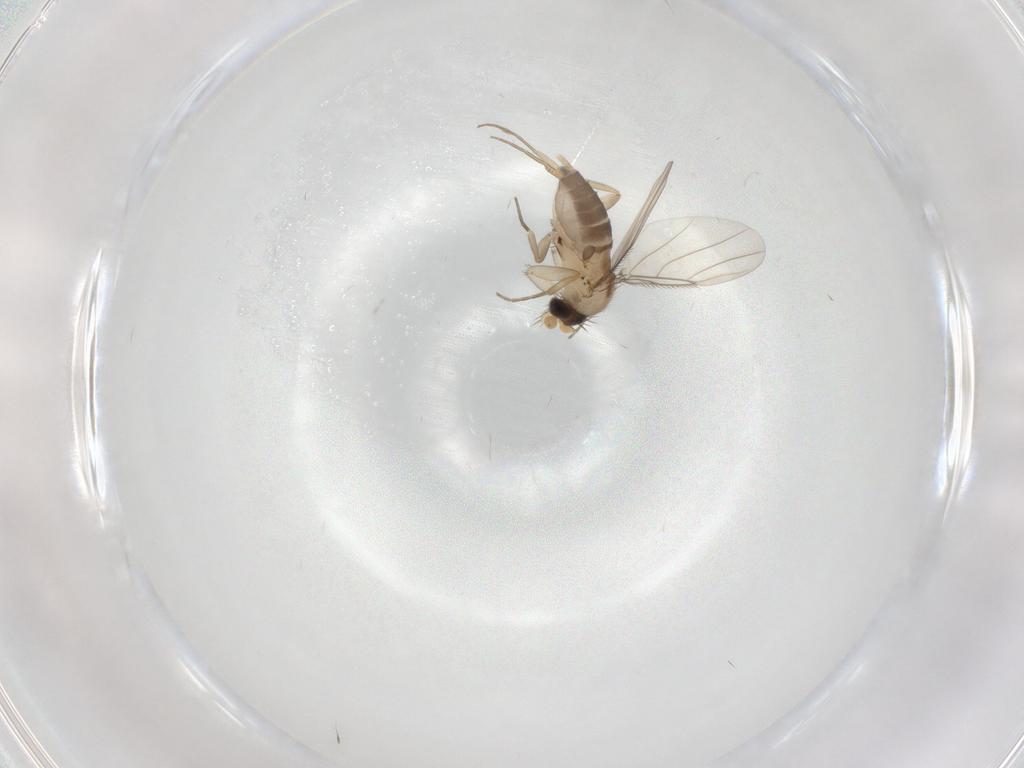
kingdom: Animalia
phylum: Arthropoda
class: Insecta
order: Diptera
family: Phoridae
